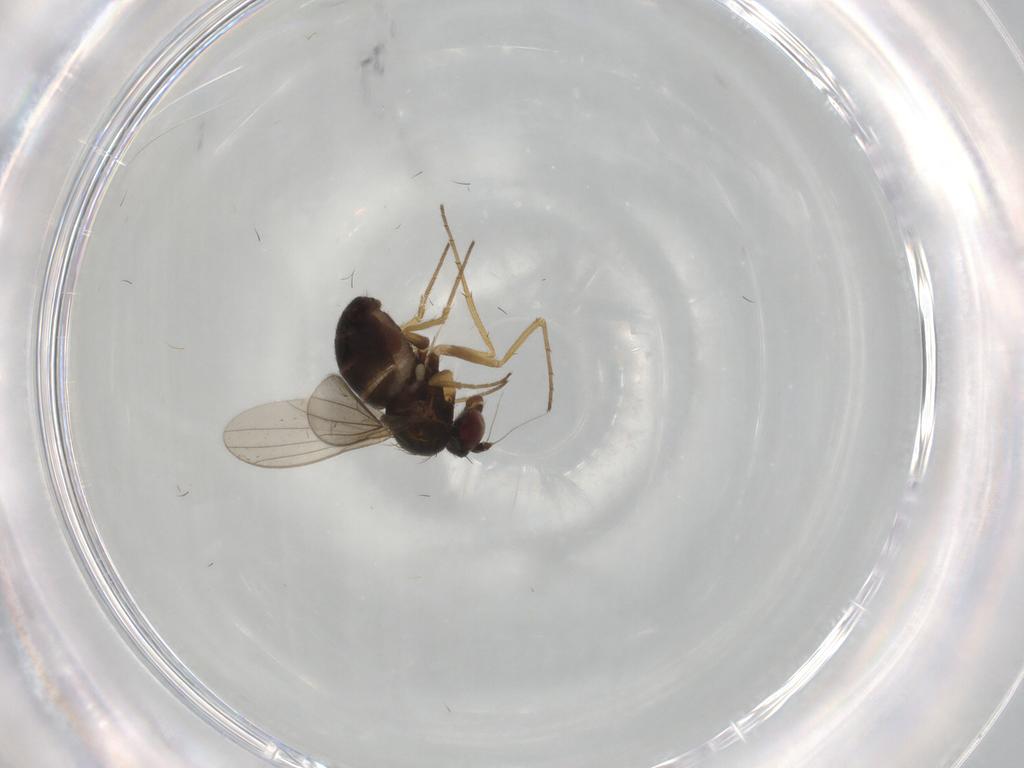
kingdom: Animalia
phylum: Arthropoda
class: Insecta
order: Diptera
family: Dolichopodidae
